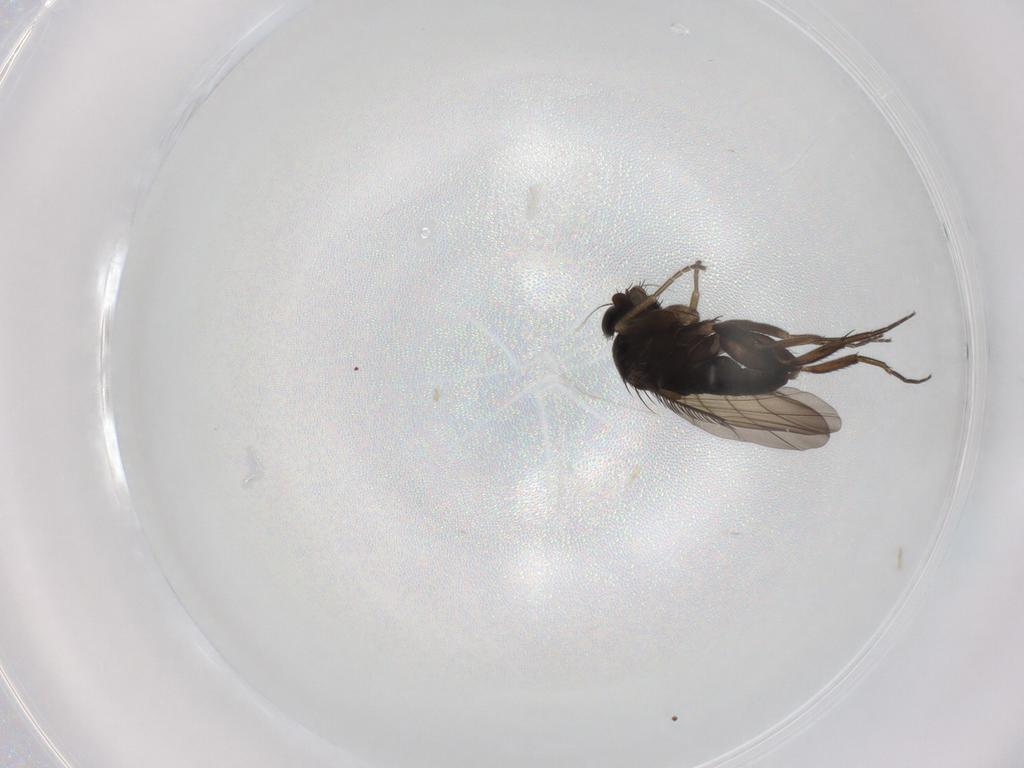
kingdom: Animalia
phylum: Arthropoda
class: Insecta
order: Diptera
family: Phoridae
